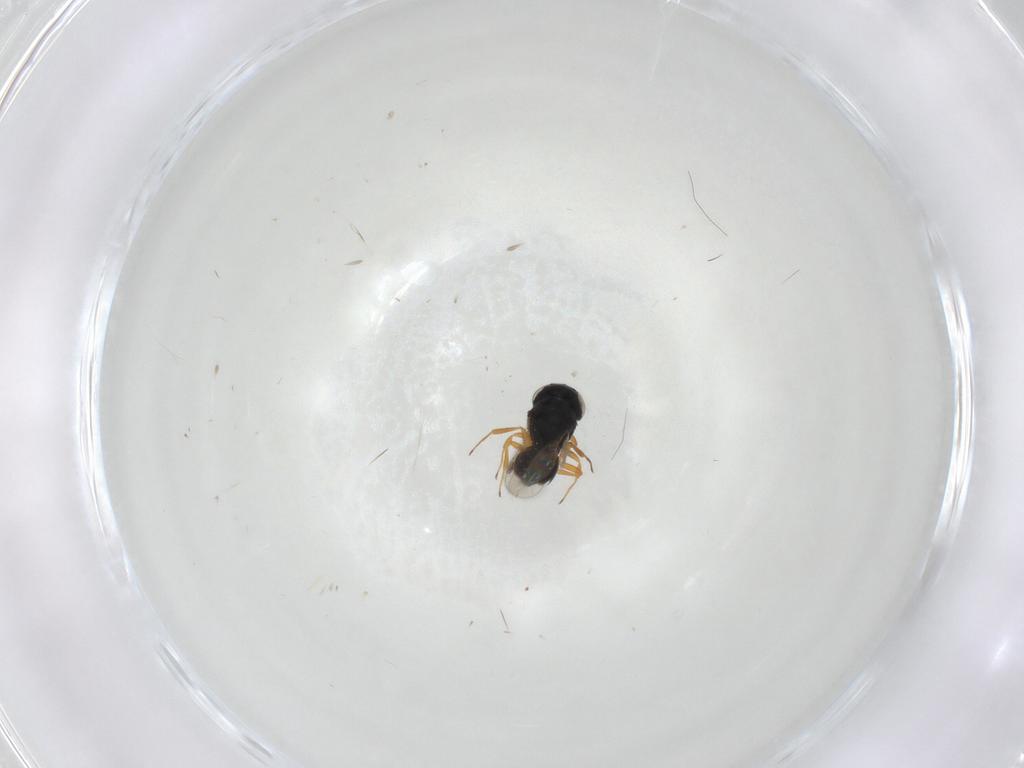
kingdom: Animalia
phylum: Arthropoda
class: Insecta
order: Hymenoptera
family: Scelionidae
